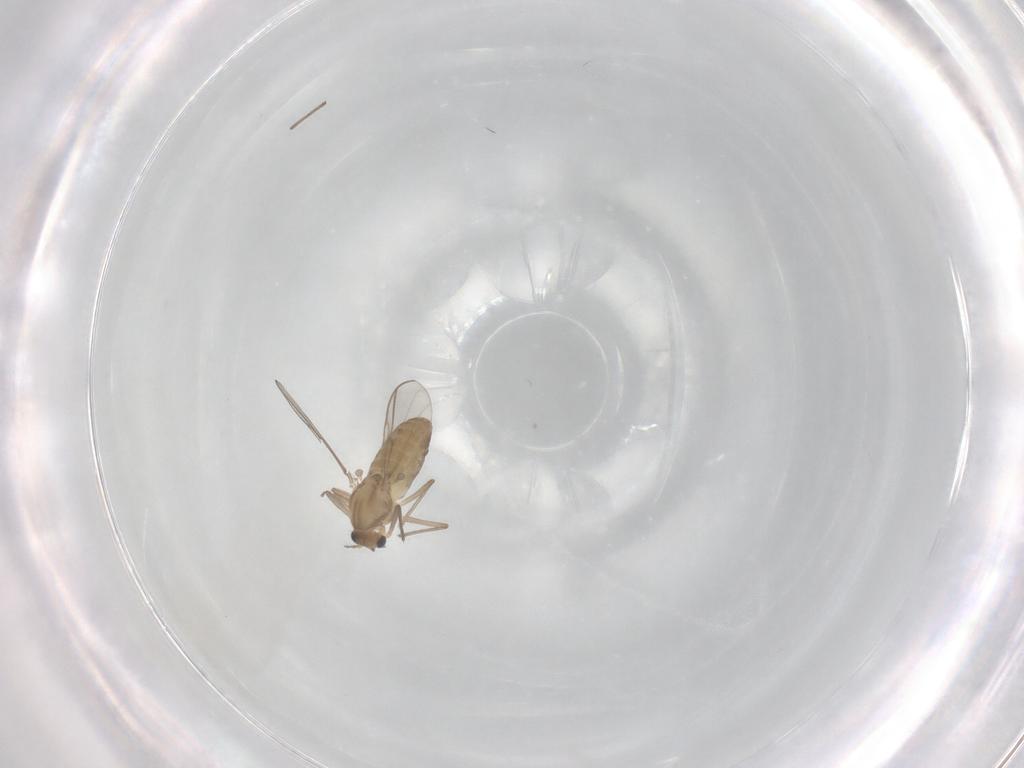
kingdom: Animalia
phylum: Arthropoda
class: Insecta
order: Diptera
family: Chironomidae
